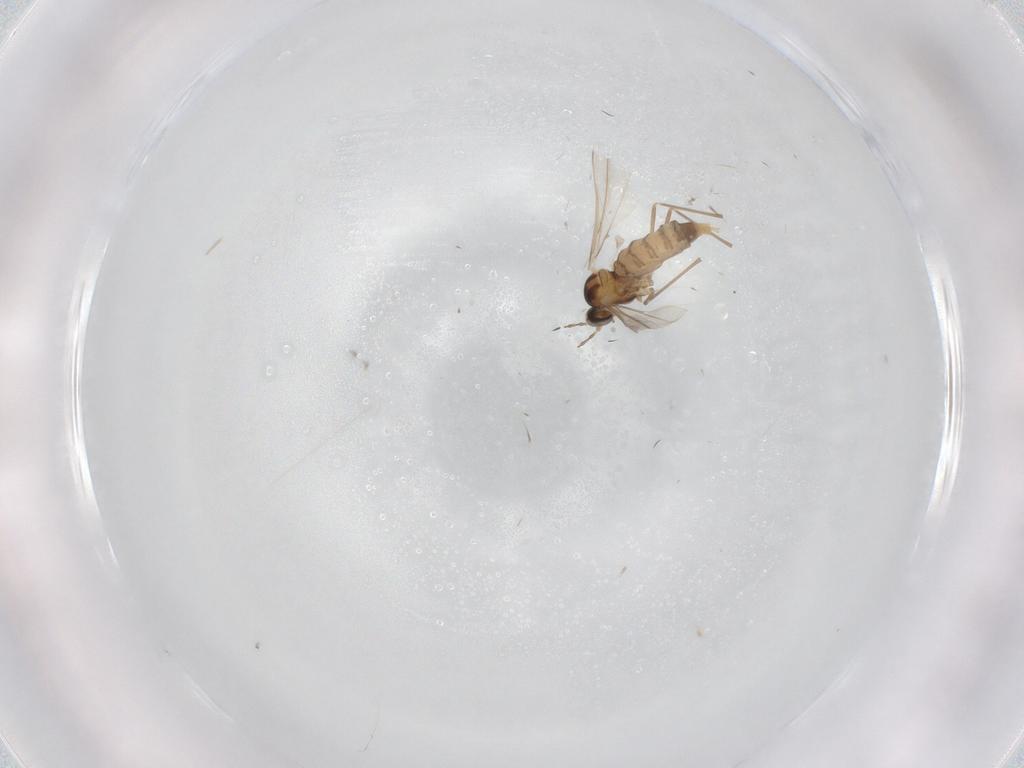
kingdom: Animalia
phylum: Arthropoda
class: Insecta
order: Diptera
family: Cecidomyiidae
